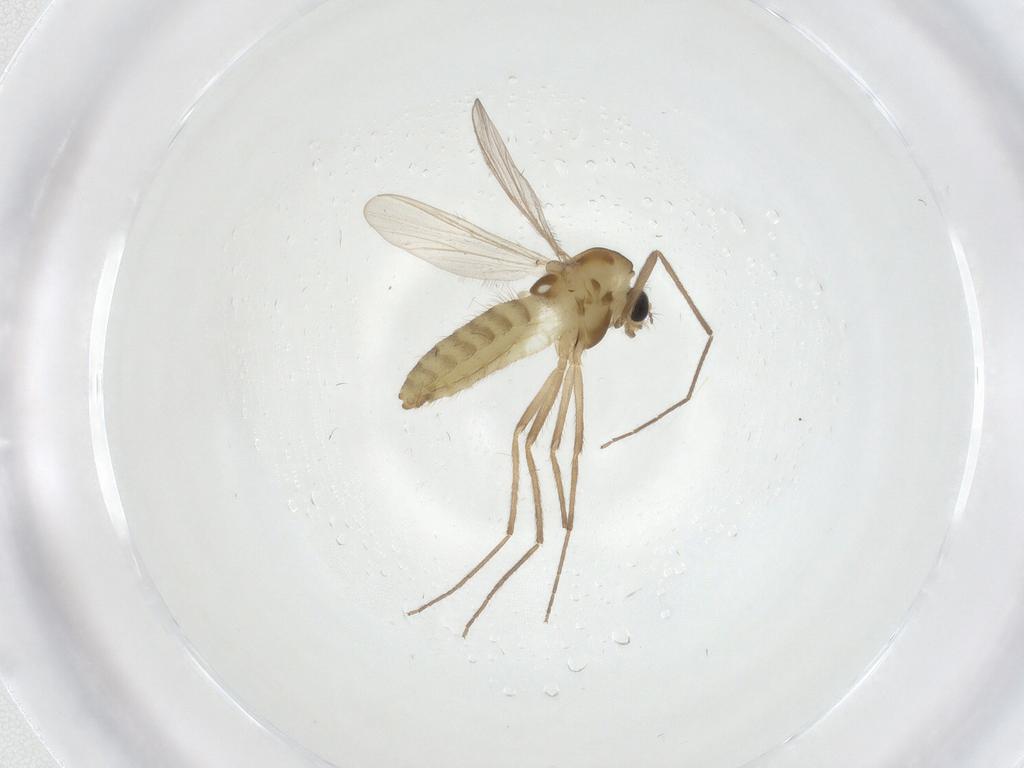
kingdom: Animalia
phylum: Arthropoda
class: Insecta
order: Diptera
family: Chironomidae
